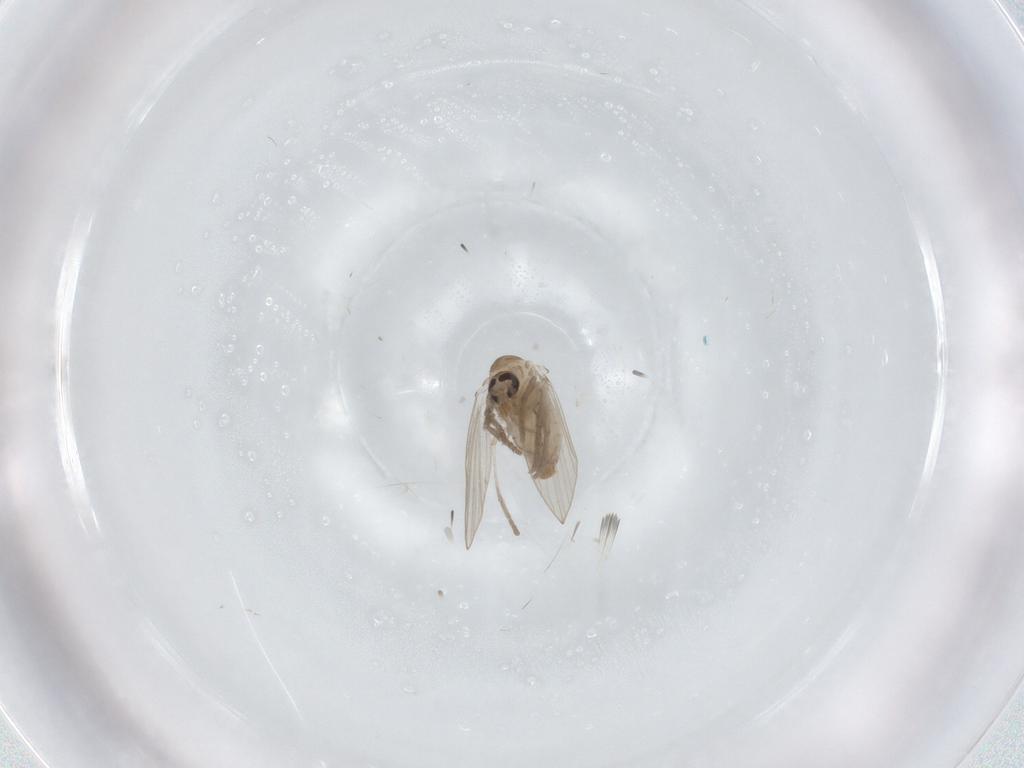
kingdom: Animalia
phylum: Arthropoda
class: Insecta
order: Diptera
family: Psychodidae
